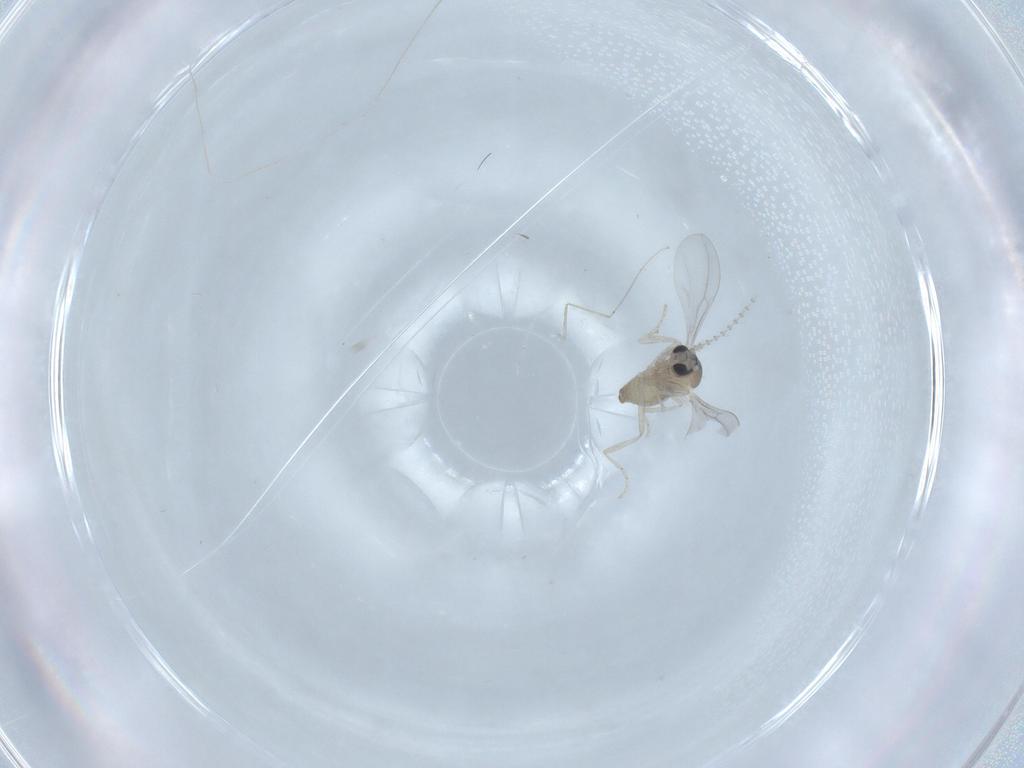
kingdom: Animalia
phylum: Arthropoda
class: Insecta
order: Diptera
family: Cecidomyiidae
